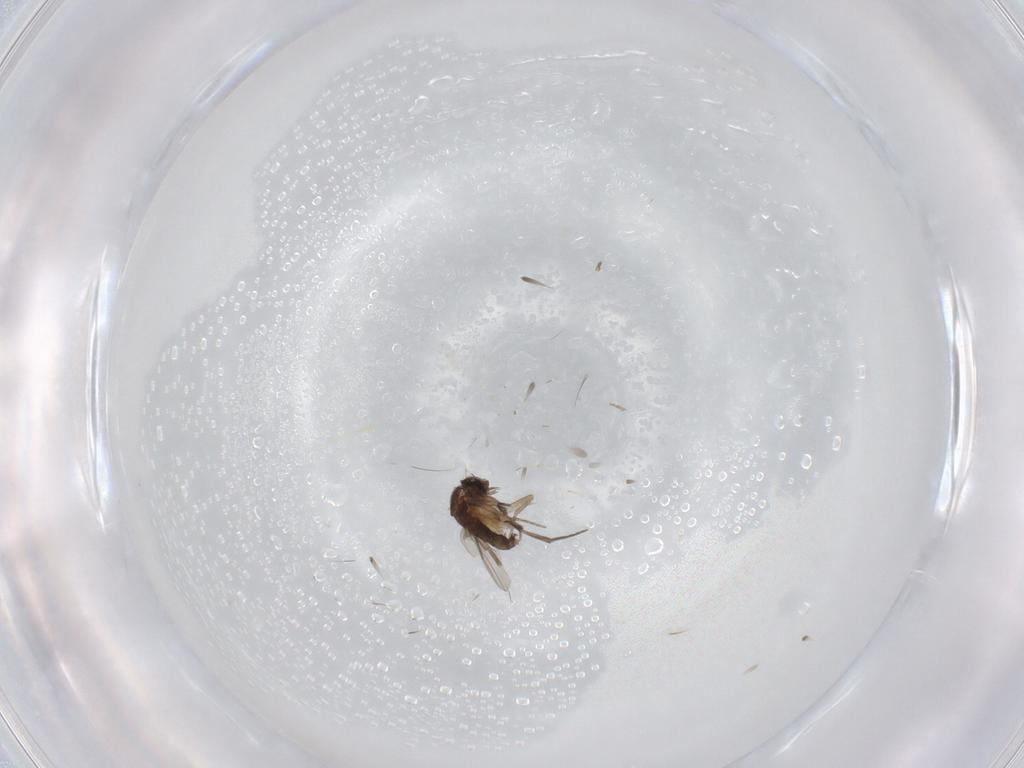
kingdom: Animalia
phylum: Arthropoda
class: Insecta
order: Diptera
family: Phoridae
